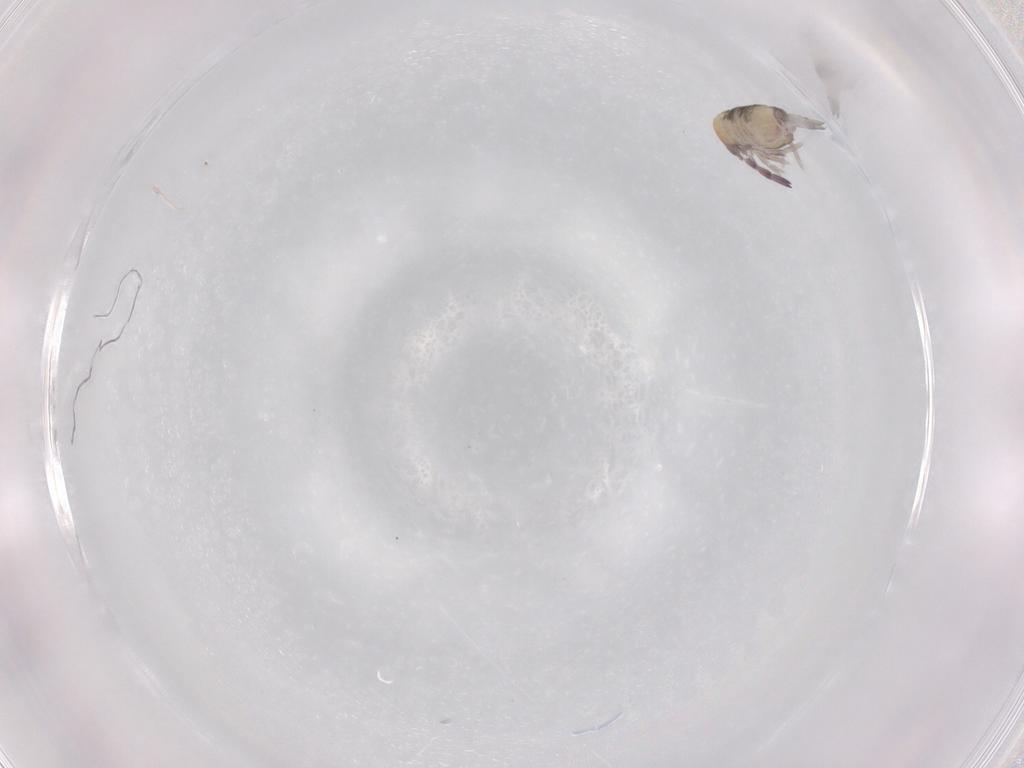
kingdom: Animalia
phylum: Arthropoda
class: Collembola
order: Entomobryomorpha
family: Entomobryidae
